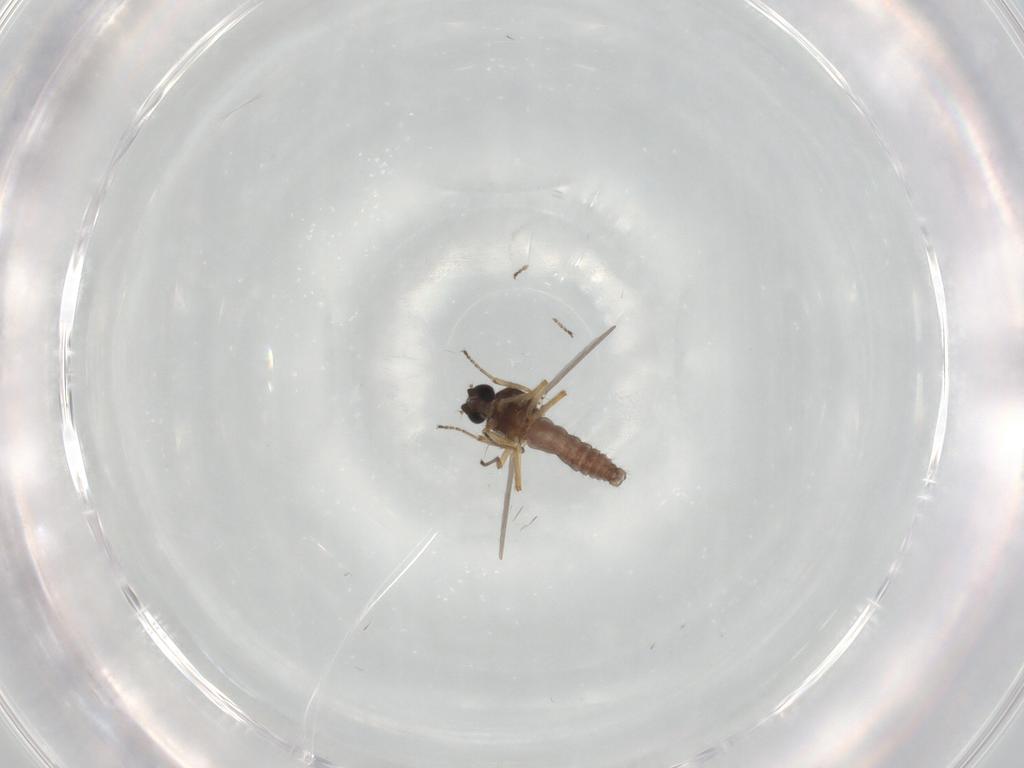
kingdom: Animalia
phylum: Arthropoda
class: Insecta
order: Diptera
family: Ceratopogonidae
